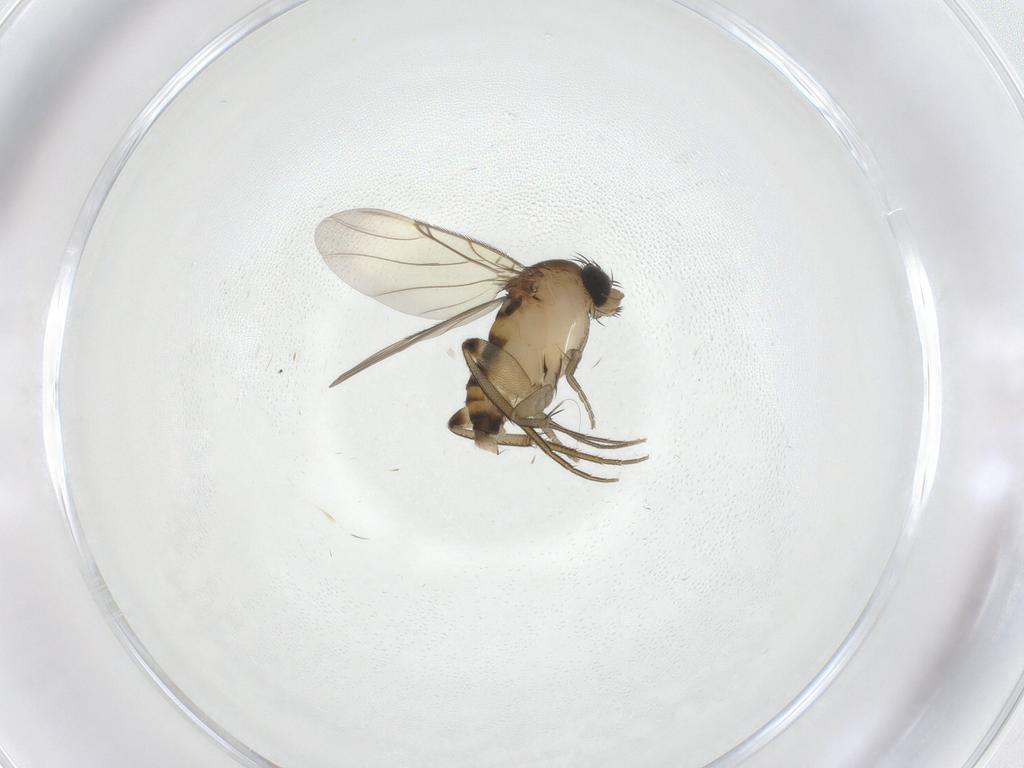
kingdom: Animalia
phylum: Arthropoda
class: Insecta
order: Diptera
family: Phoridae
